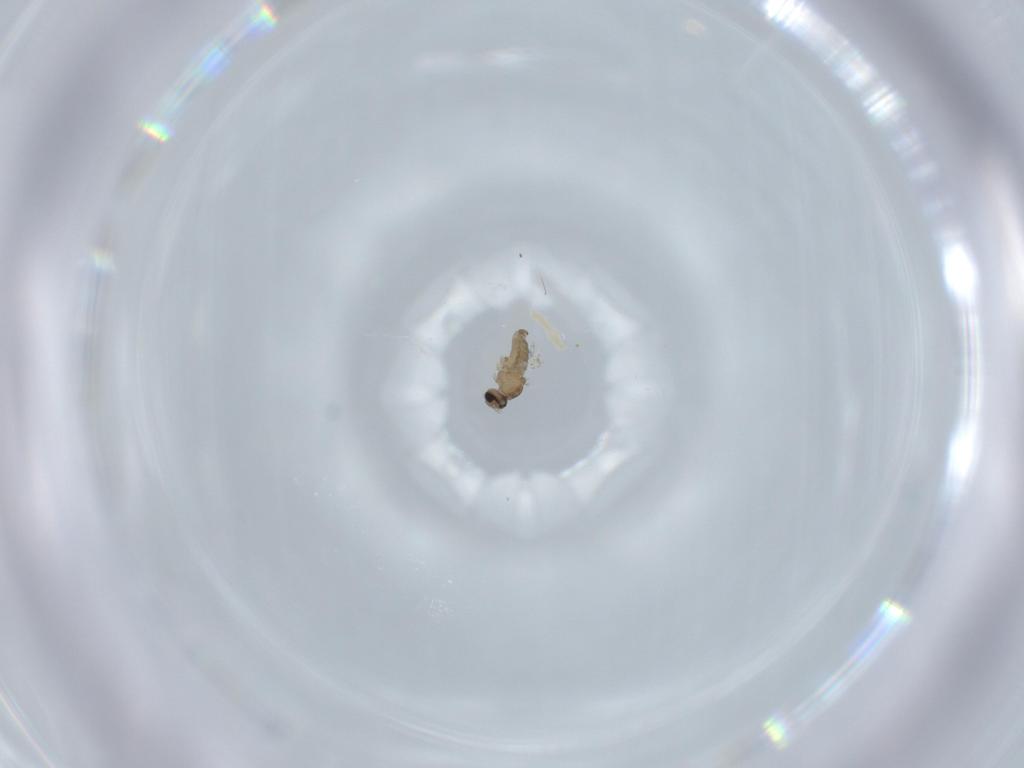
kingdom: Animalia
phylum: Arthropoda
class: Insecta
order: Diptera
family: Cecidomyiidae
